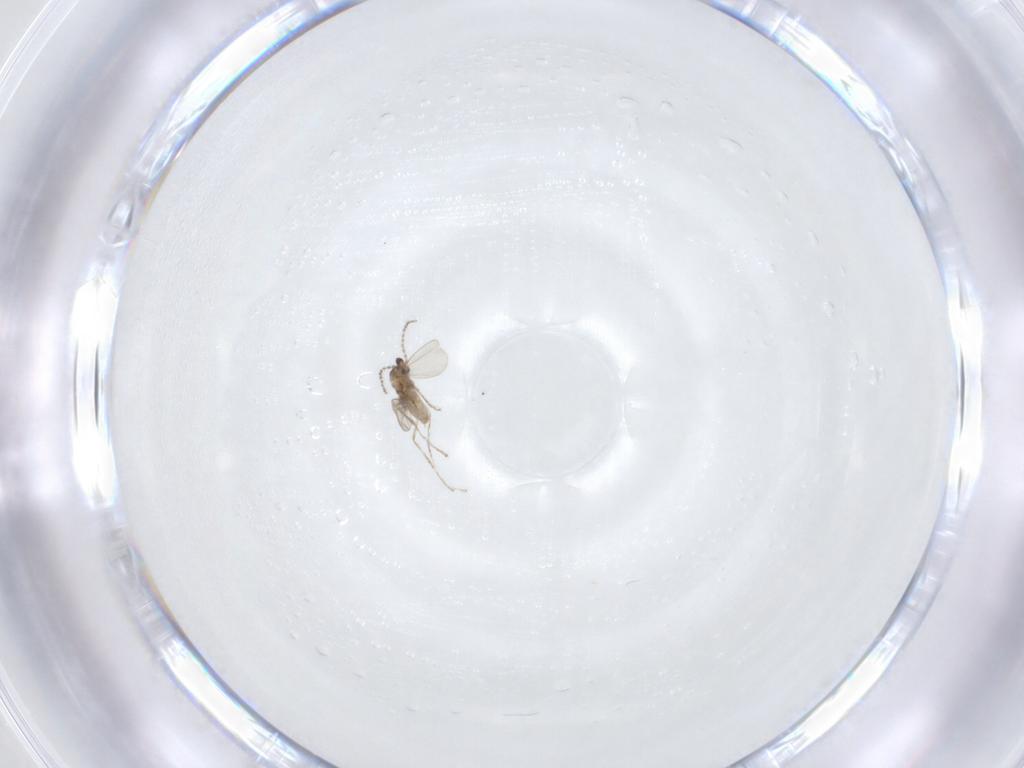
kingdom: Animalia
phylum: Arthropoda
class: Insecta
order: Diptera
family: Cecidomyiidae
